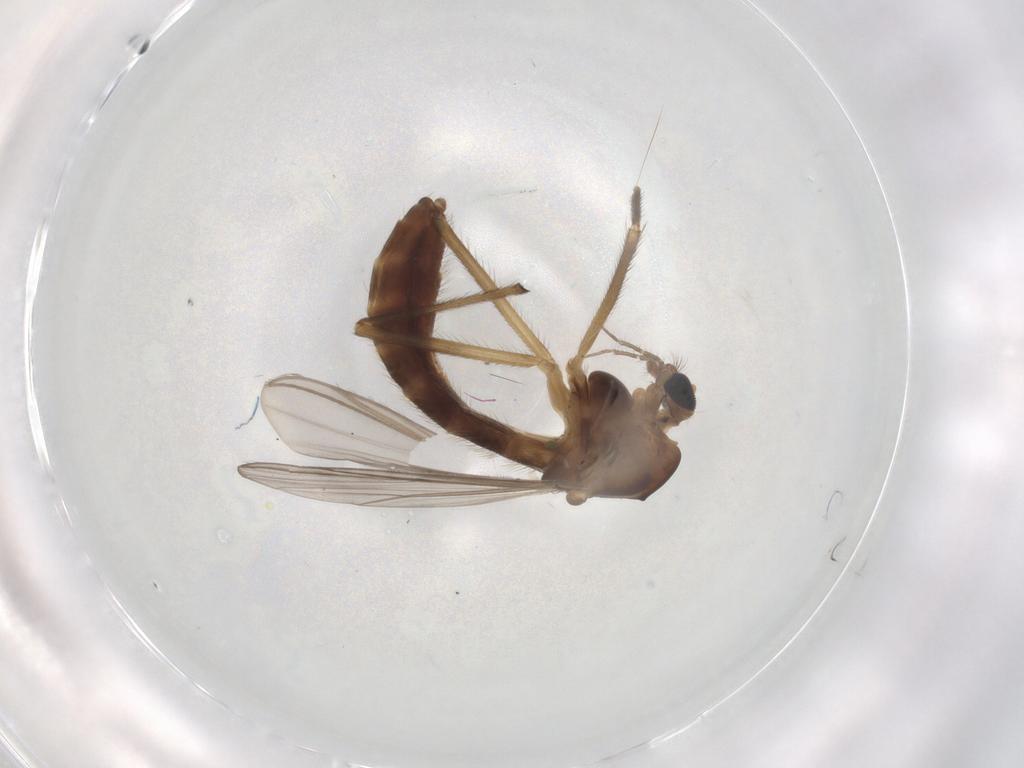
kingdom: Animalia
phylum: Arthropoda
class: Insecta
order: Diptera
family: Chironomidae
